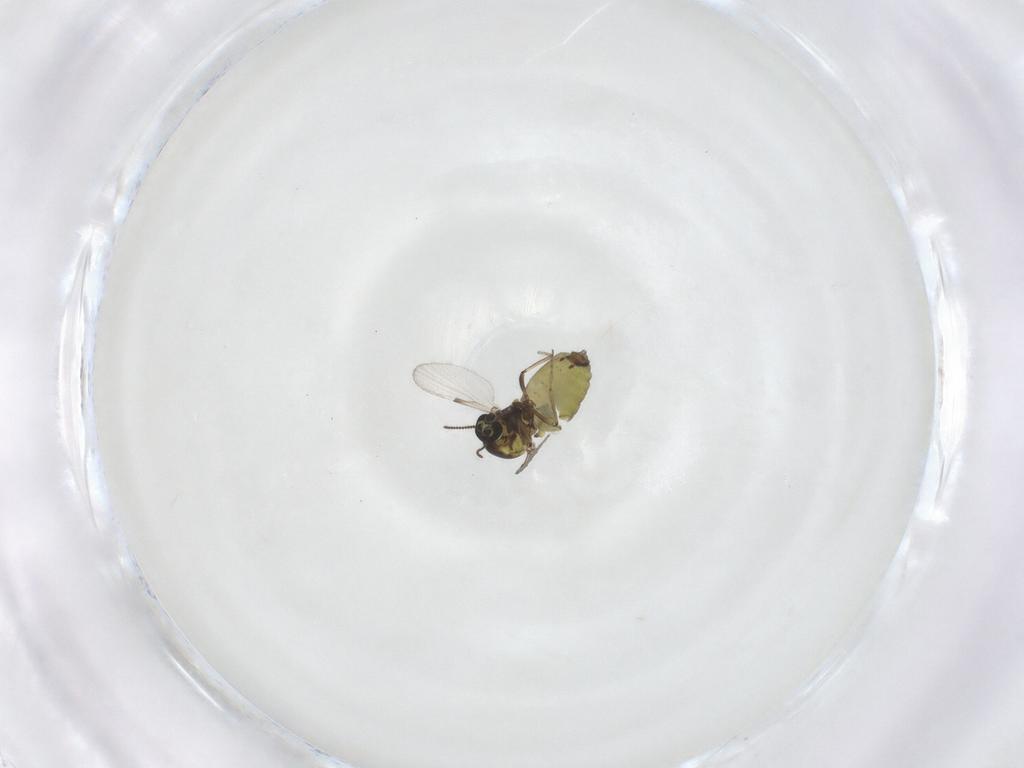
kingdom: Animalia
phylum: Arthropoda
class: Insecta
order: Diptera
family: Ceratopogonidae
